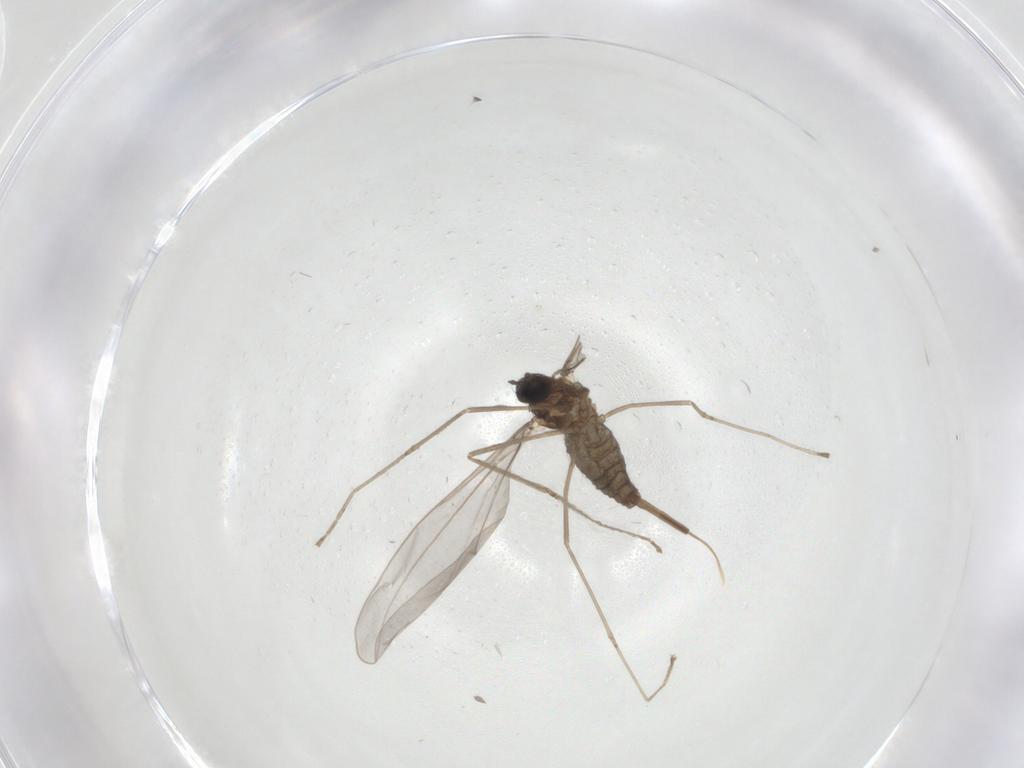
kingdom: Animalia
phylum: Arthropoda
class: Insecta
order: Diptera
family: Cecidomyiidae
